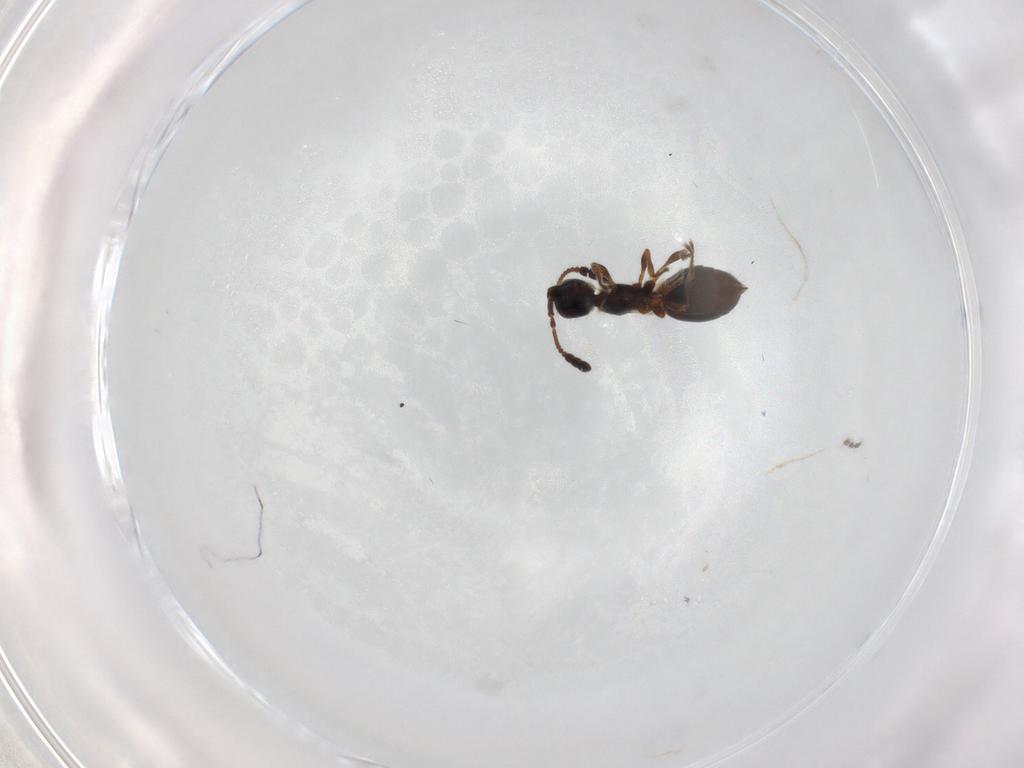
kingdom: Animalia
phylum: Arthropoda
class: Insecta
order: Hymenoptera
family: Diapriidae
